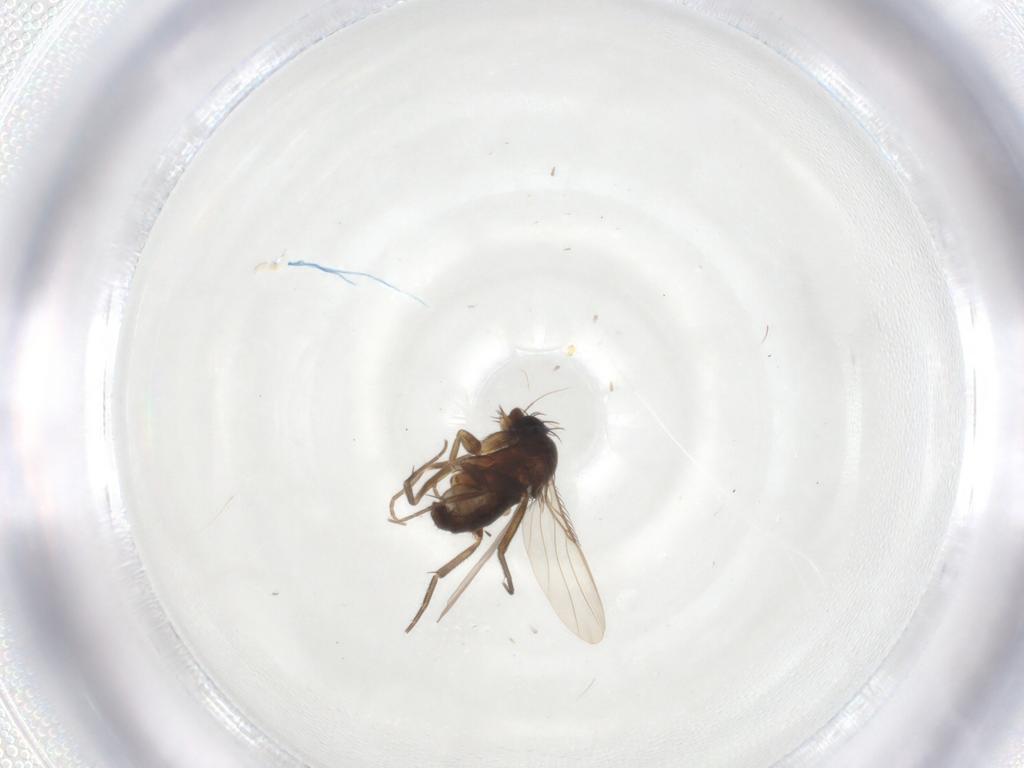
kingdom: Animalia
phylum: Arthropoda
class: Insecta
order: Diptera
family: Phoridae
